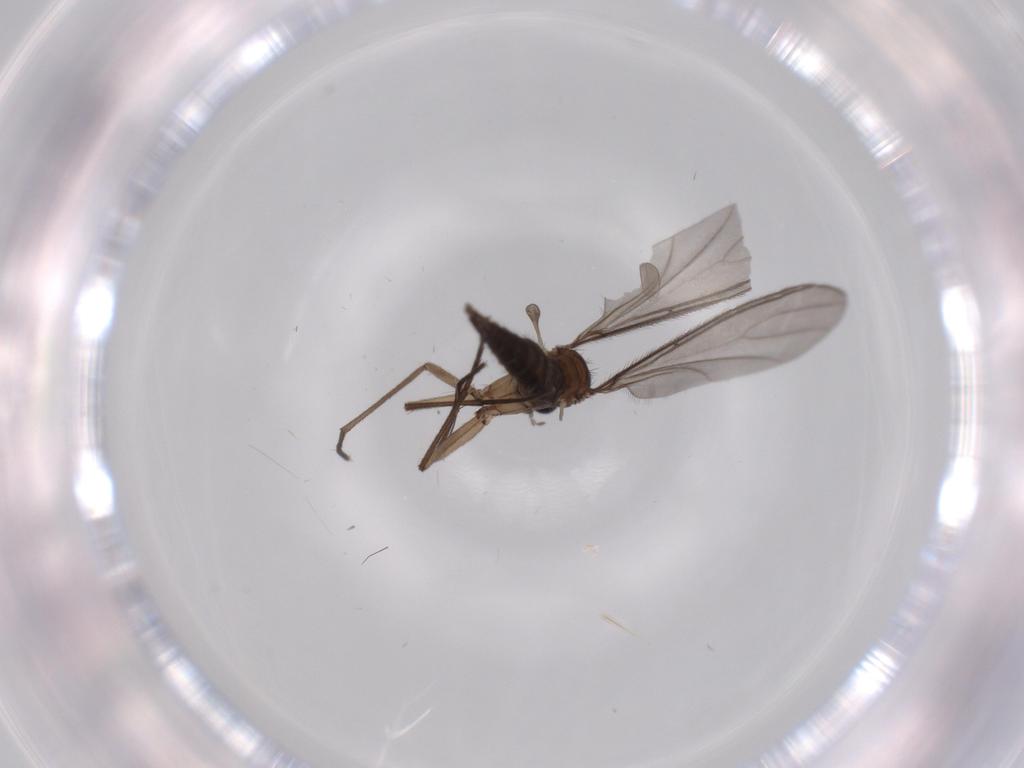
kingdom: Animalia
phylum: Arthropoda
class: Insecta
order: Diptera
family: Sciaridae
